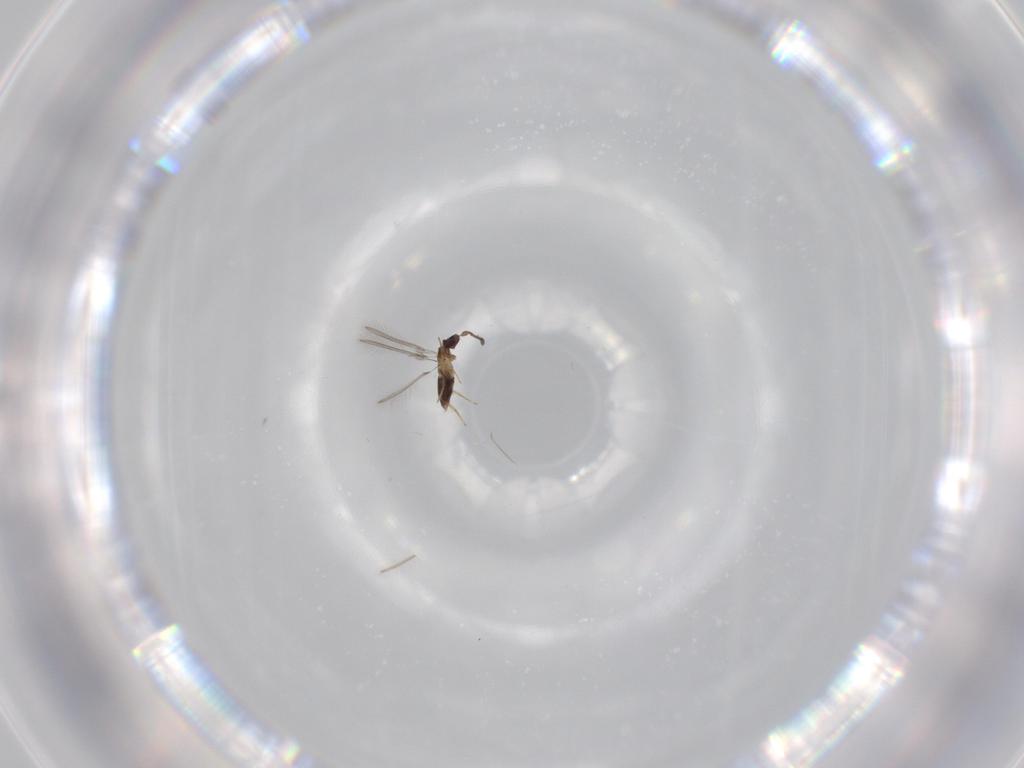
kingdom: Animalia
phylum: Arthropoda
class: Insecta
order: Hymenoptera
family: Mymaridae
